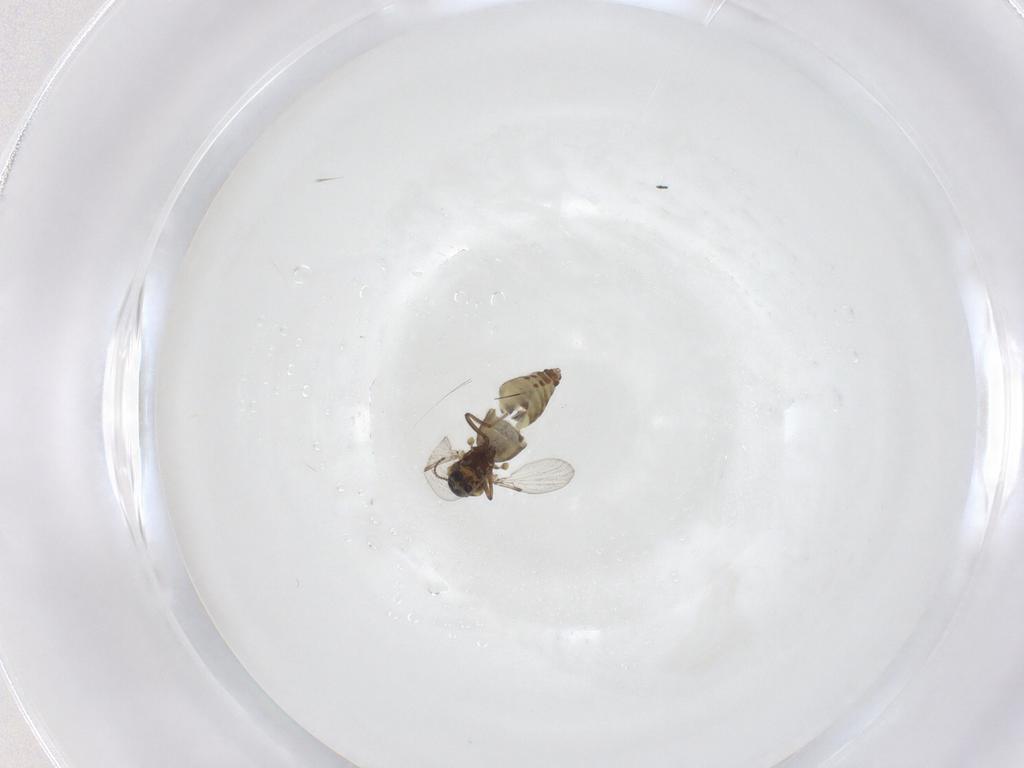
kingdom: Animalia
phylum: Arthropoda
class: Insecta
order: Diptera
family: Ceratopogonidae
